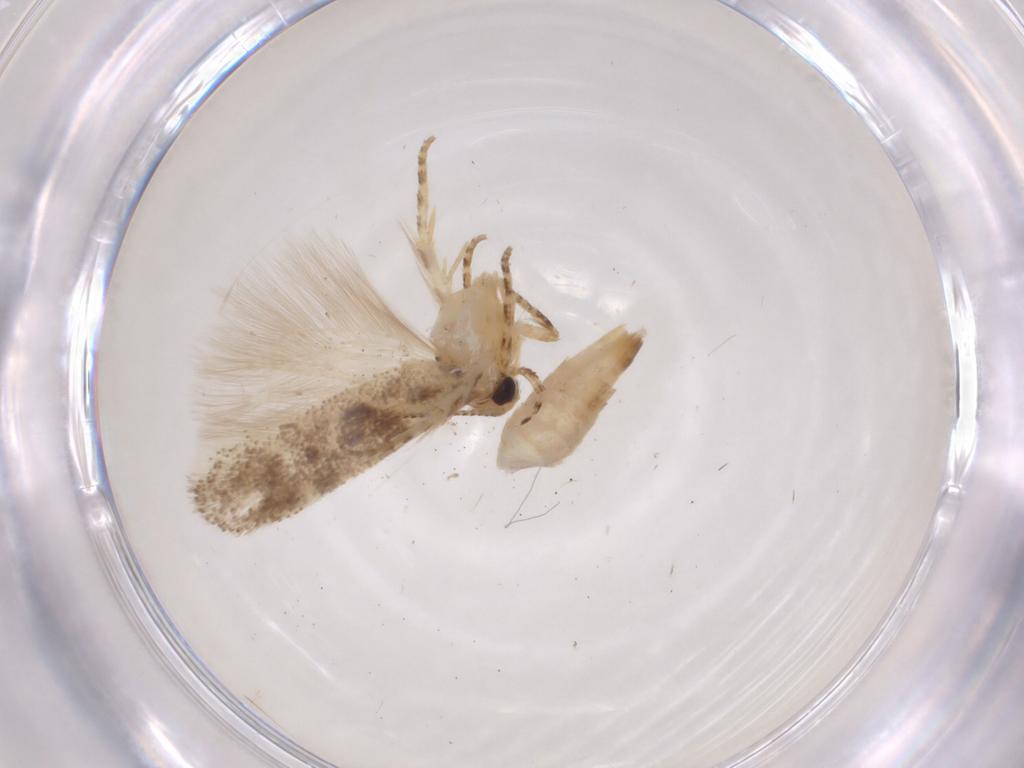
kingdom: Animalia
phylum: Arthropoda
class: Insecta
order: Lepidoptera
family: Gelechiidae
